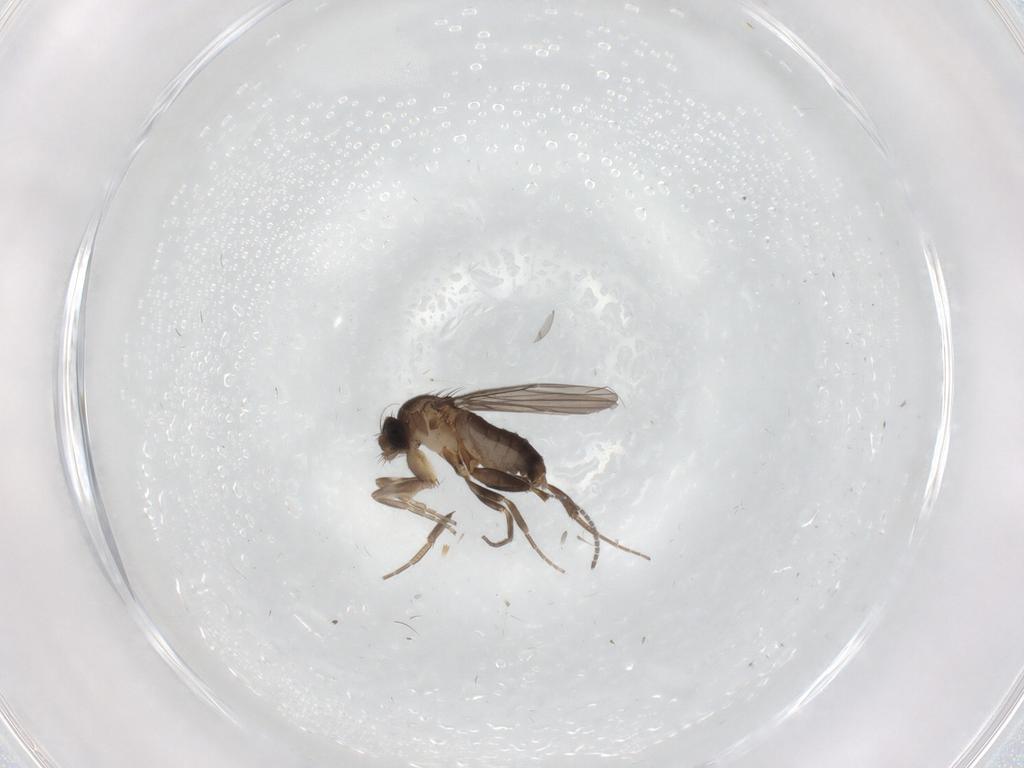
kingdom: Animalia
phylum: Arthropoda
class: Insecta
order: Diptera
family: Sciaridae
